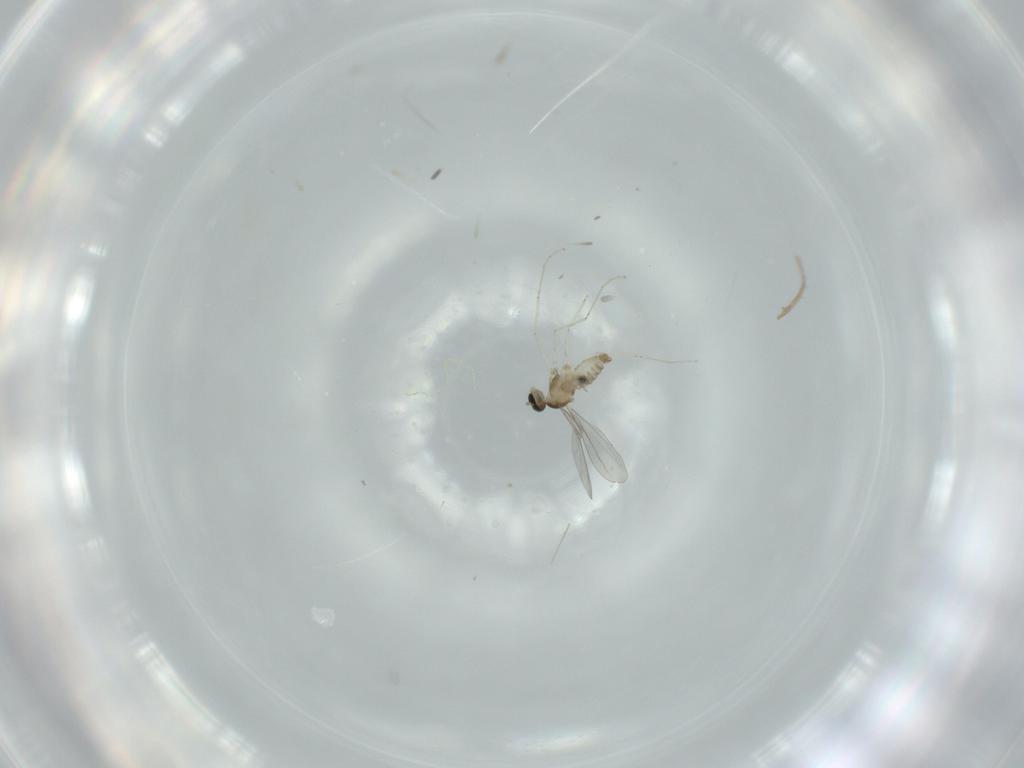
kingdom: Animalia
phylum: Arthropoda
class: Insecta
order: Diptera
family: Cecidomyiidae
